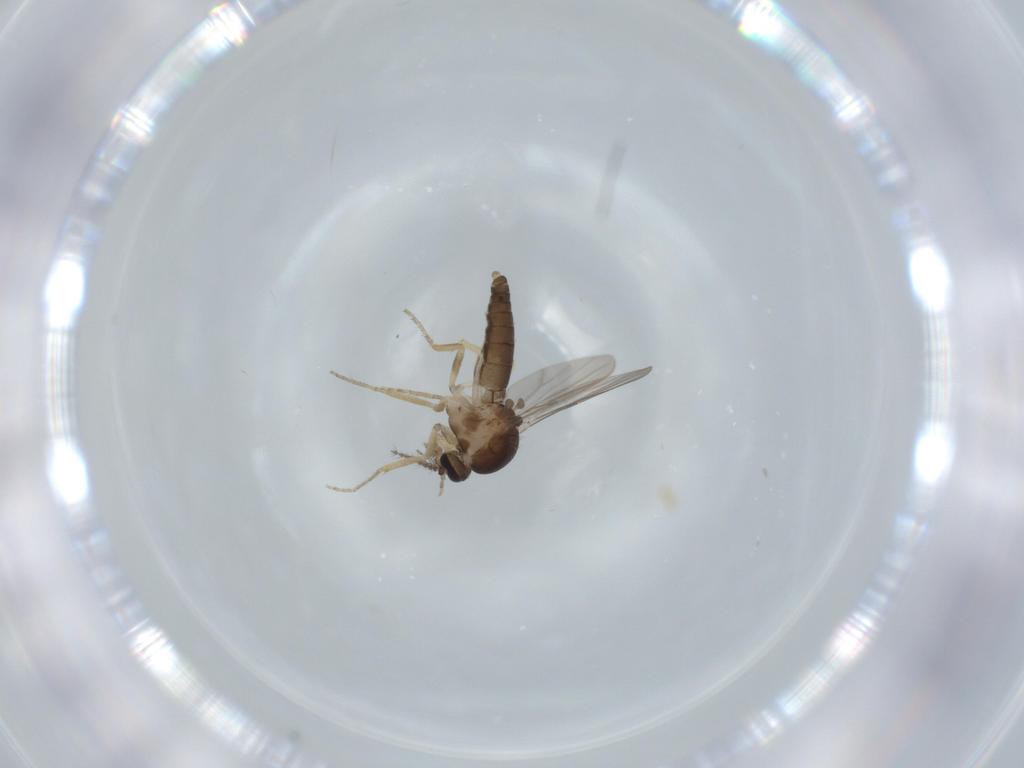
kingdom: Animalia
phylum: Arthropoda
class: Insecta
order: Diptera
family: Ceratopogonidae
